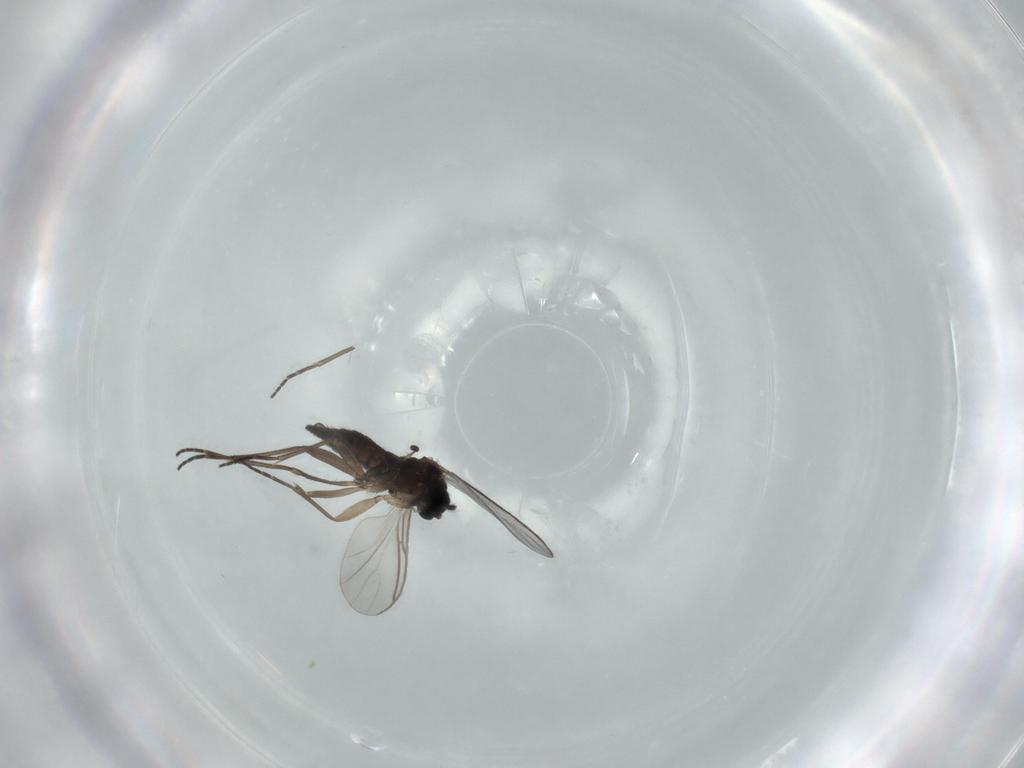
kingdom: Animalia
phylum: Arthropoda
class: Insecta
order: Diptera
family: Sciaridae
